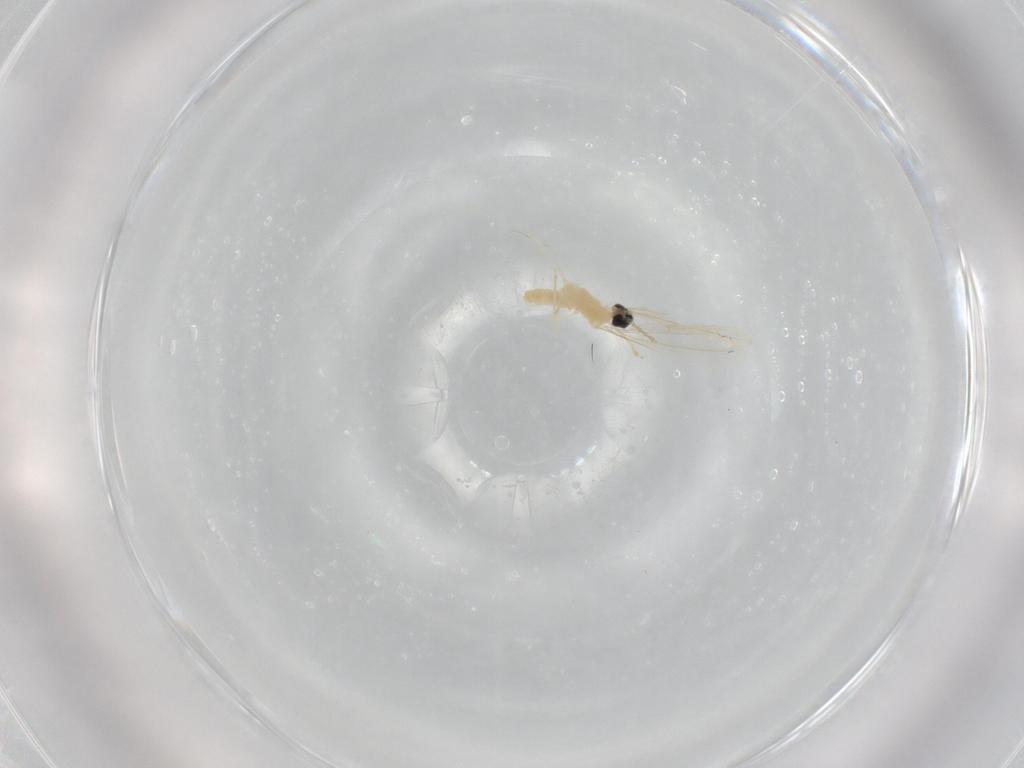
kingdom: Animalia
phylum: Arthropoda
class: Insecta
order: Diptera
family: Cecidomyiidae
